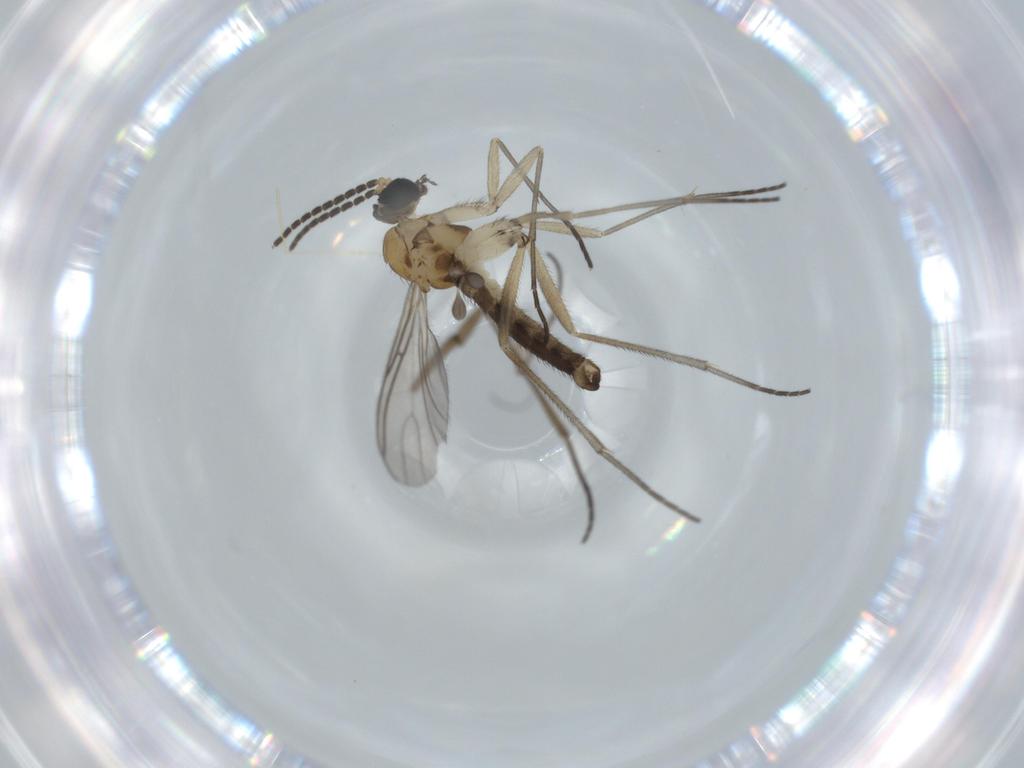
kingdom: Animalia
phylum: Arthropoda
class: Insecta
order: Diptera
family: Sciaridae
